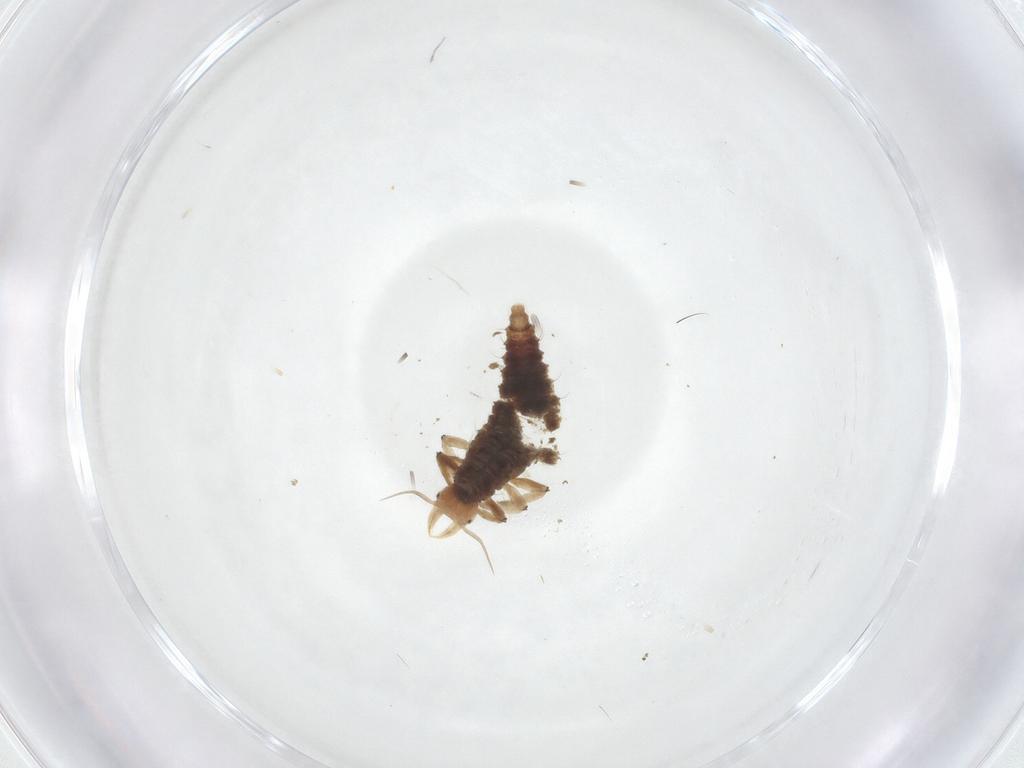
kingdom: Animalia
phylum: Arthropoda
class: Insecta
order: Neuroptera
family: Hemerobiidae
